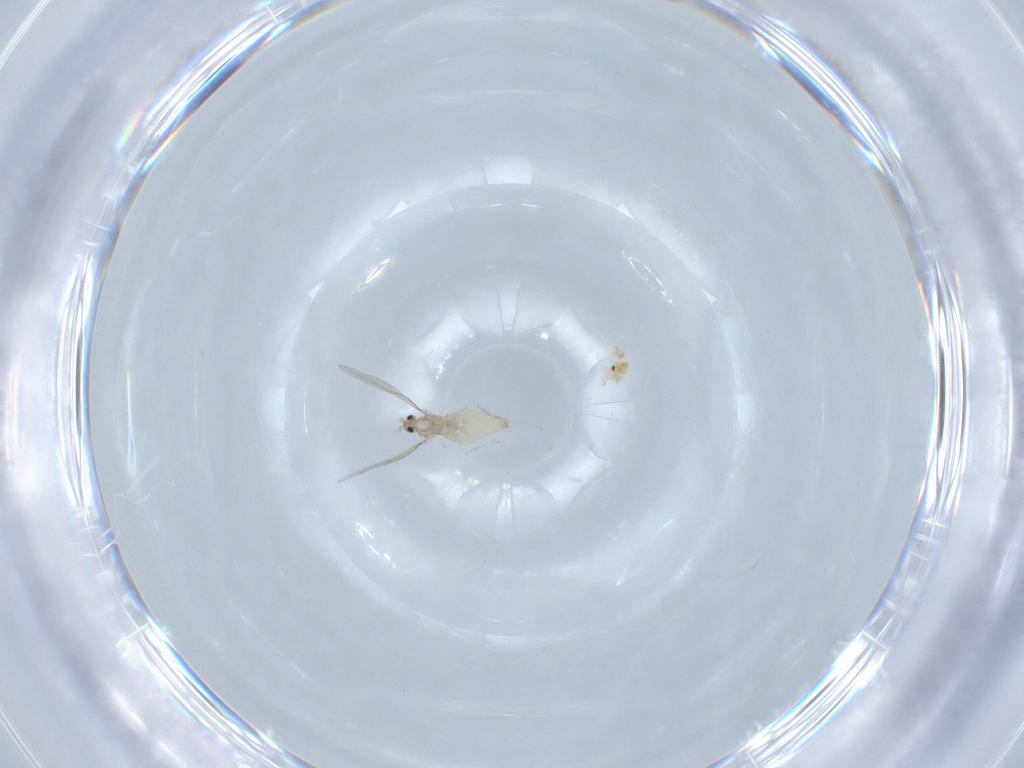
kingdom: Animalia
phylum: Arthropoda
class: Insecta
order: Diptera
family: Cecidomyiidae
